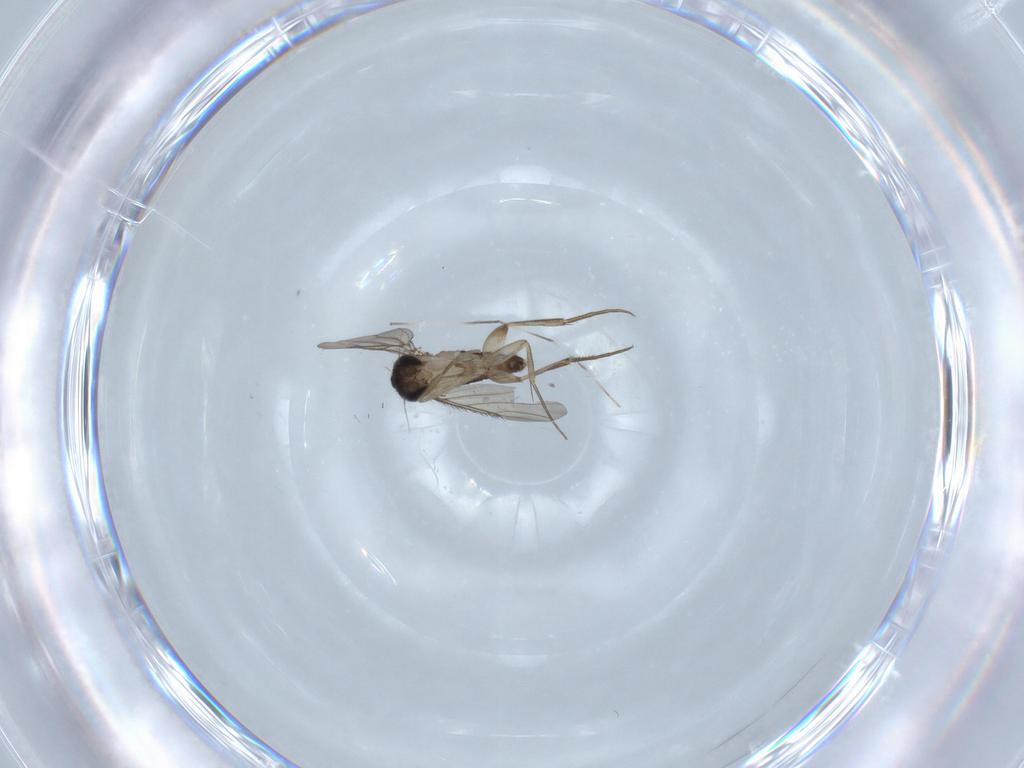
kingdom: Animalia
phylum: Arthropoda
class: Insecta
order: Diptera
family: Phoridae
